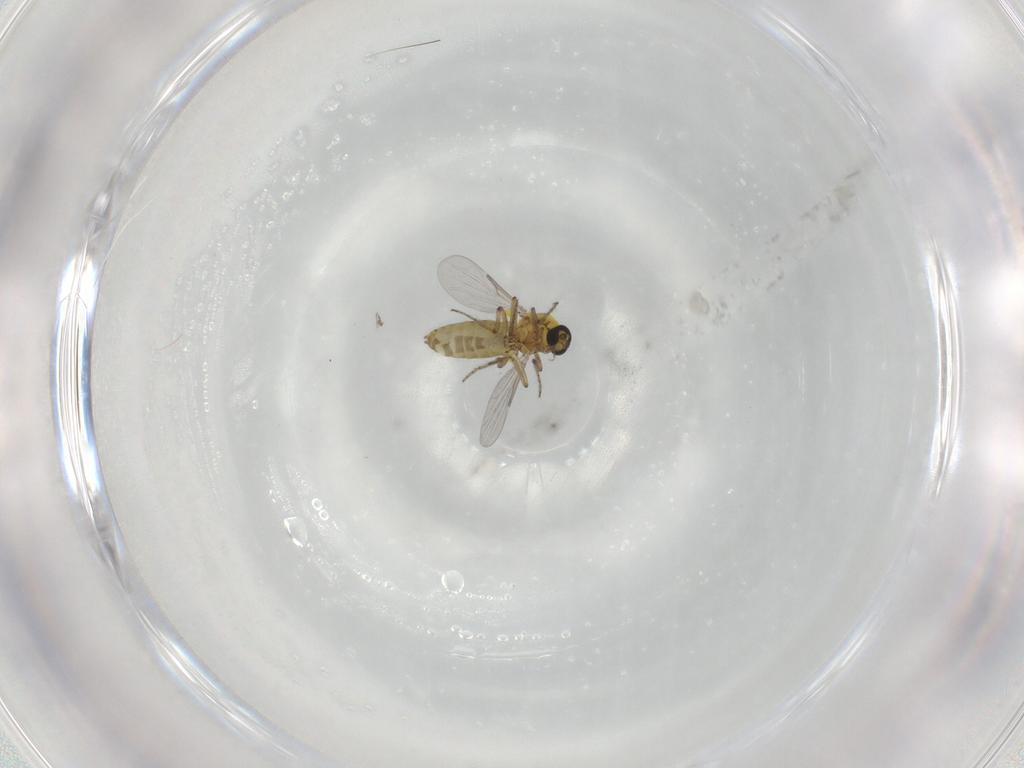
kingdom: Animalia
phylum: Arthropoda
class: Insecta
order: Diptera
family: Ceratopogonidae
